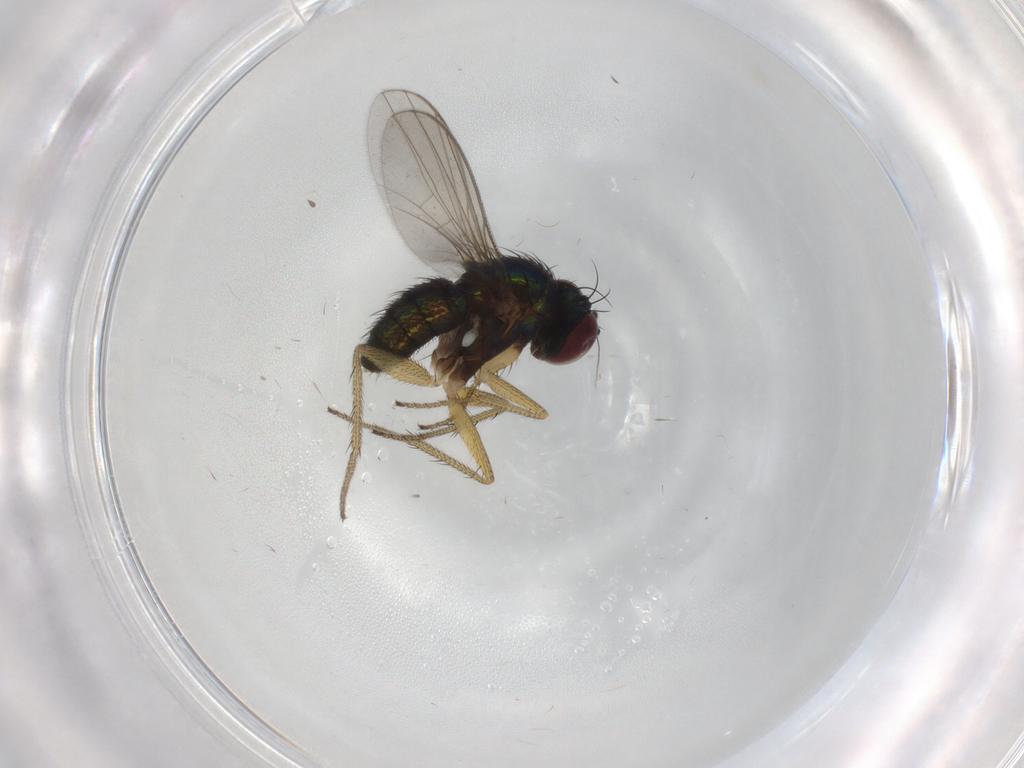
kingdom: Animalia
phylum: Arthropoda
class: Insecta
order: Diptera
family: Dolichopodidae
